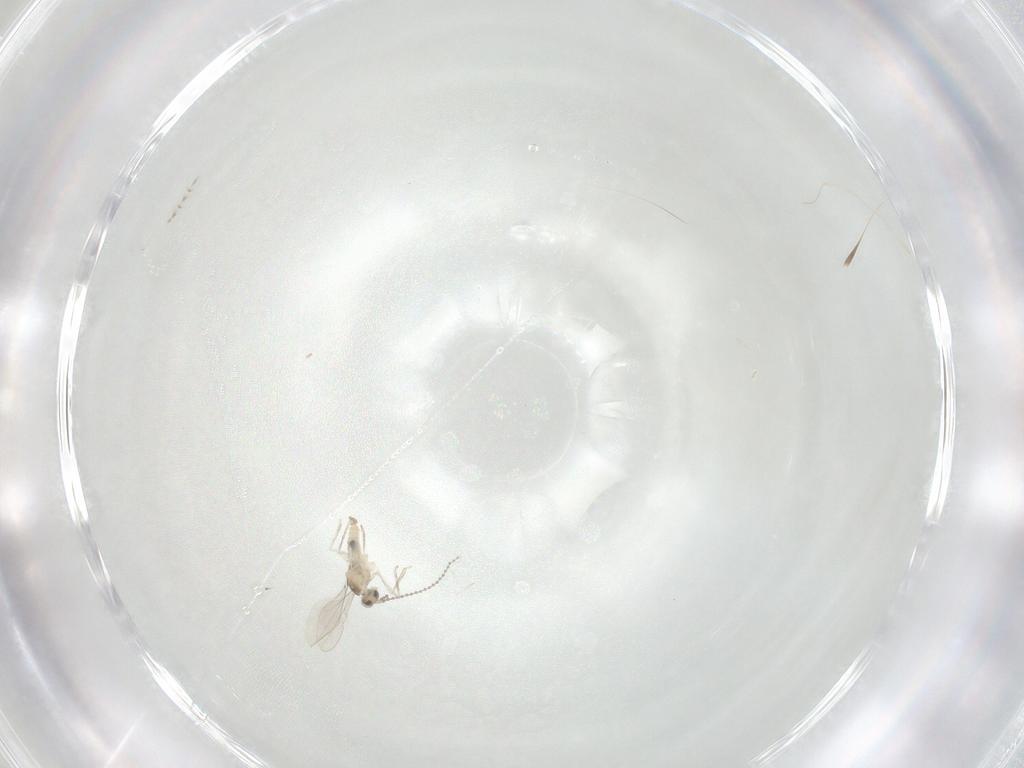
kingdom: Animalia
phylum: Arthropoda
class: Insecta
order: Diptera
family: Cecidomyiidae
